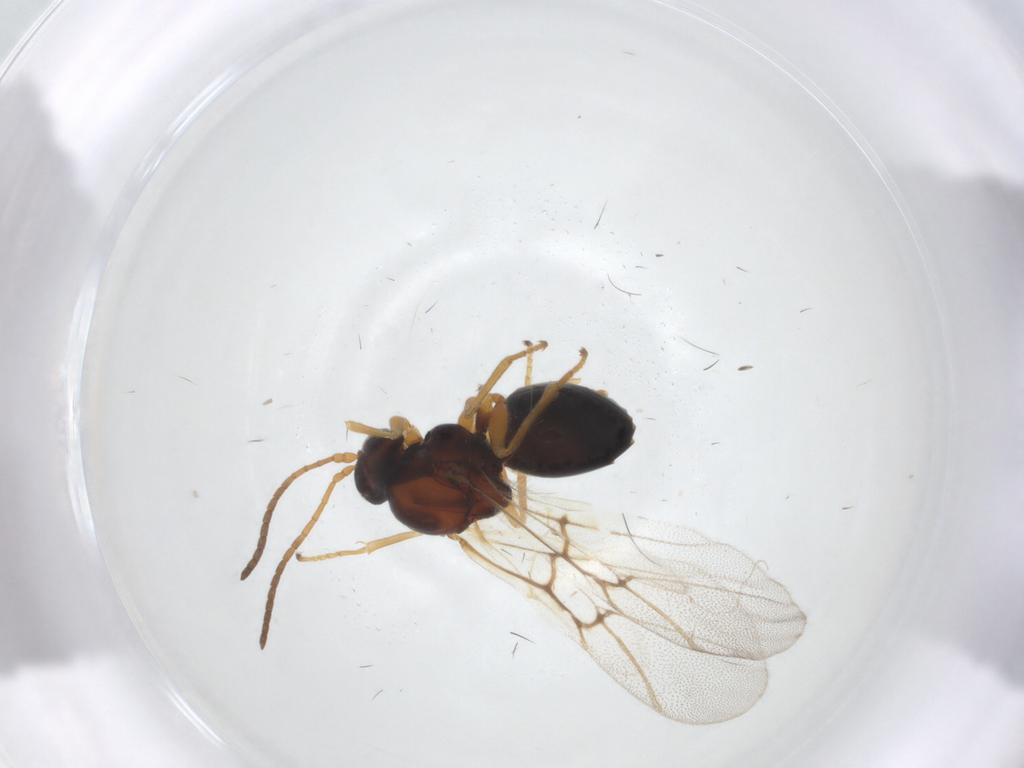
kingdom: Animalia
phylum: Arthropoda
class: Insecta
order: Hymenoptera
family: Cynipidae
